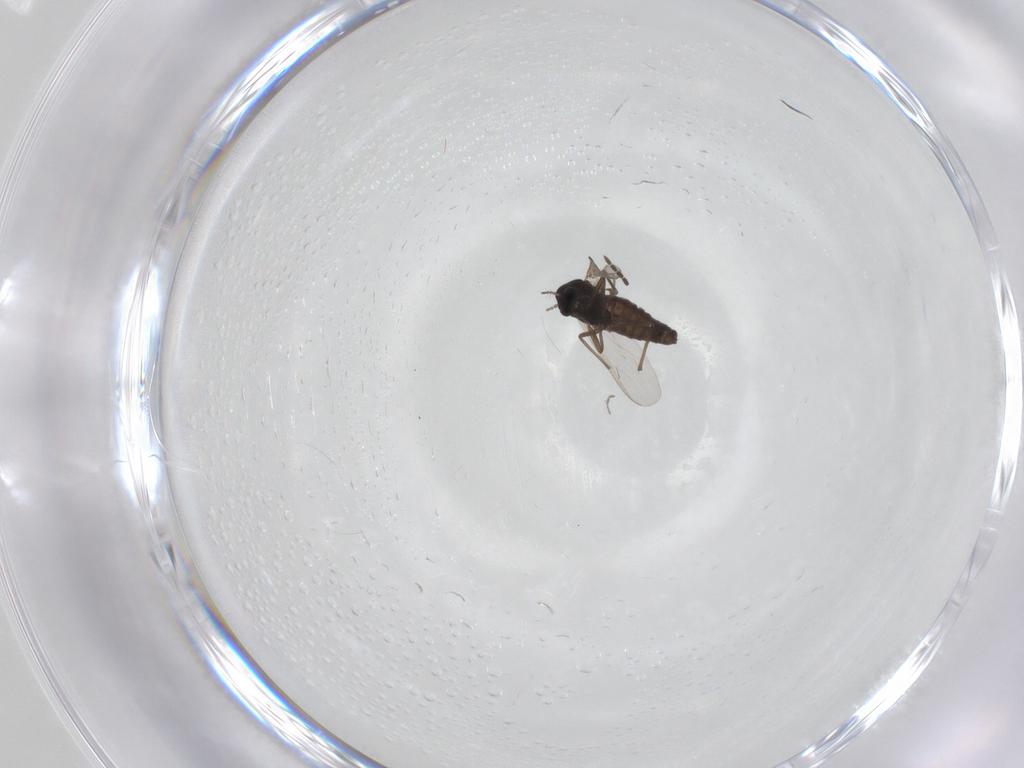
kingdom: Animalia
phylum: Arthropoda
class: Insecta
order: Diptera
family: Chironomidae
